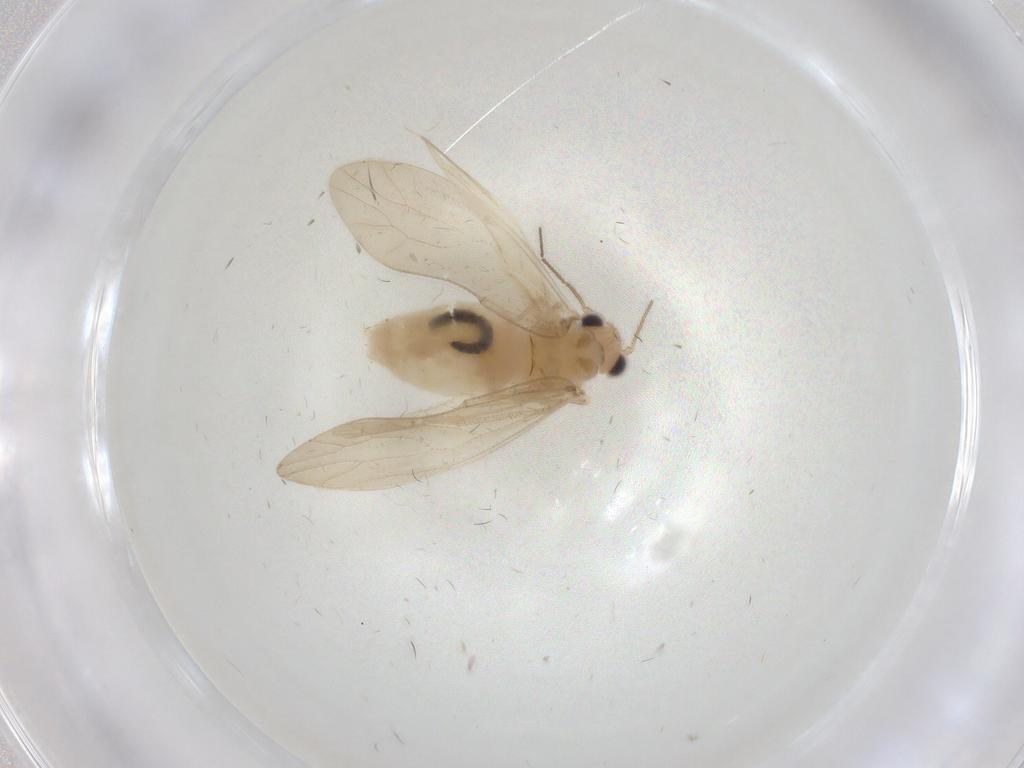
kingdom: Animalia
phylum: Arthropoda
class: Insecta
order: Psocodea
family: Caeciliusidae
